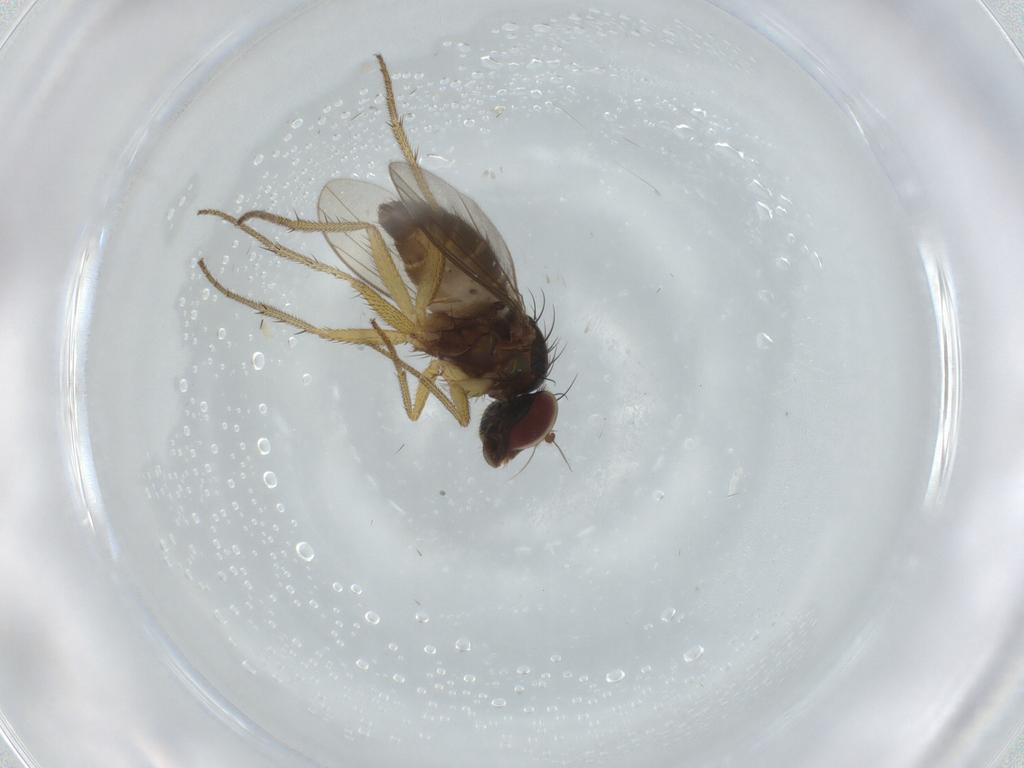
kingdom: Animalia
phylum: Arthropoda
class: Insecta
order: Diptera
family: Dolichopodidae
